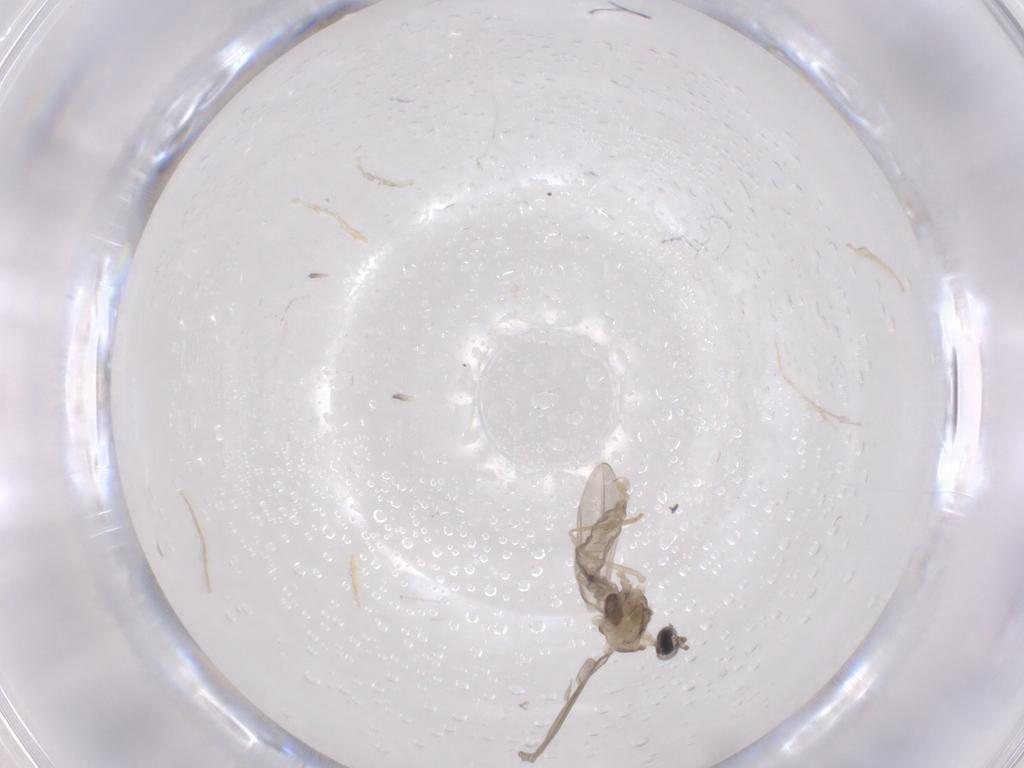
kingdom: Animalia
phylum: Arthropoda
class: Insecta
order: Diptera
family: Cecidomyiidae
